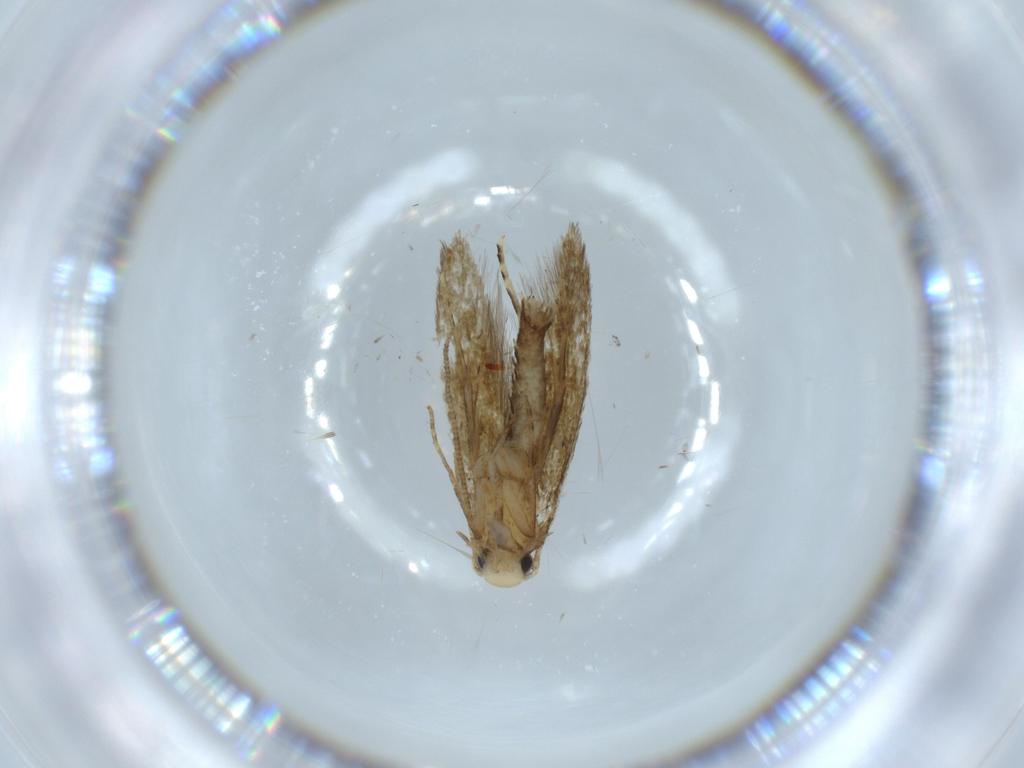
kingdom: Animalia
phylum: Arthropoda
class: Insecta
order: Lepidoptera
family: Tineidae
